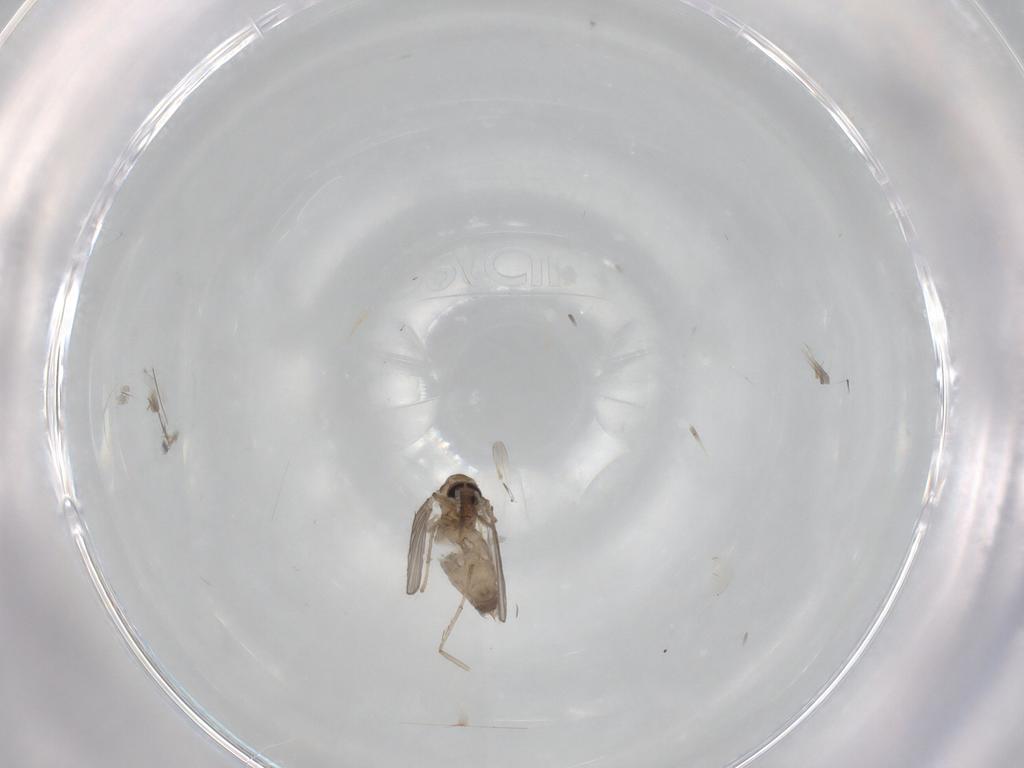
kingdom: Animalia
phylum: Arthropoda
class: Insecta
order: Diptera
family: Psychodidae
